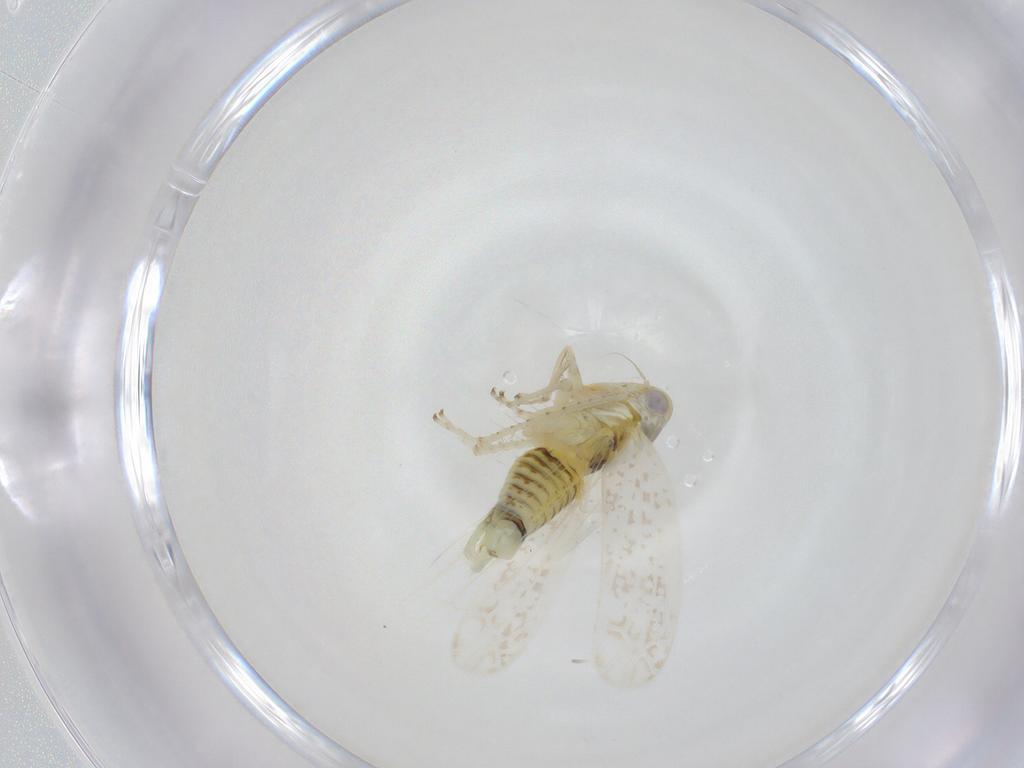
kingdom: Animalia
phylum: Arthropoda
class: Insecta
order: Hemiptera
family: Cicadellidae
